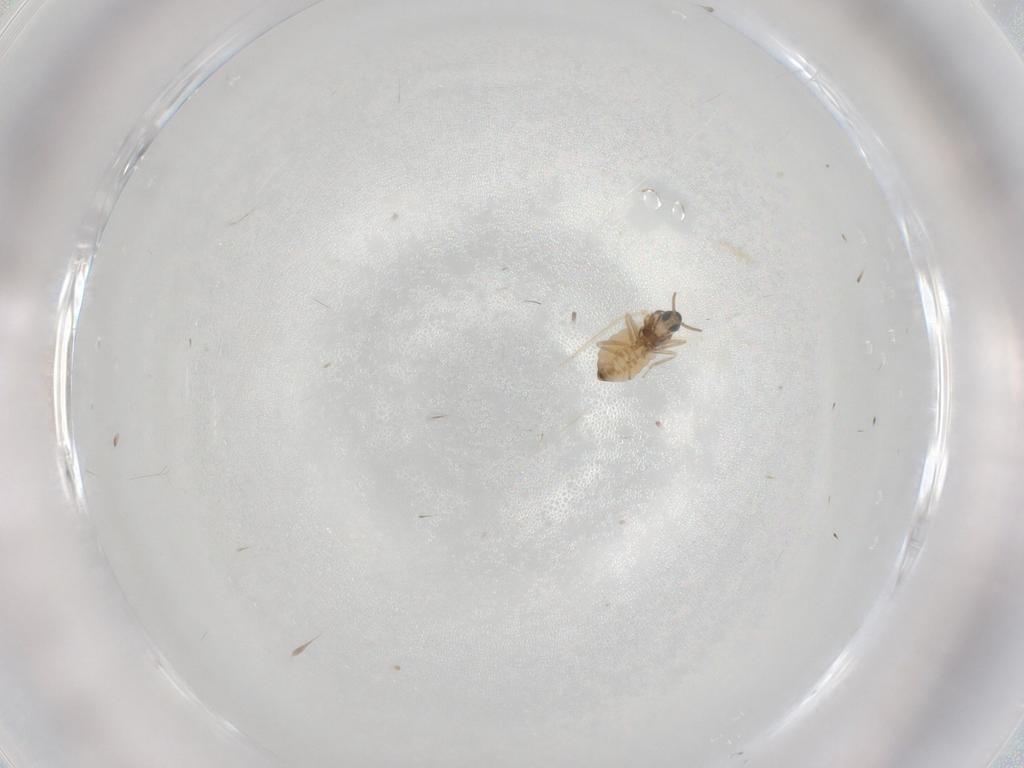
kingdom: Animalia
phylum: Arthropoda
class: Insecta
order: Diptera
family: Cecidomyiidae
